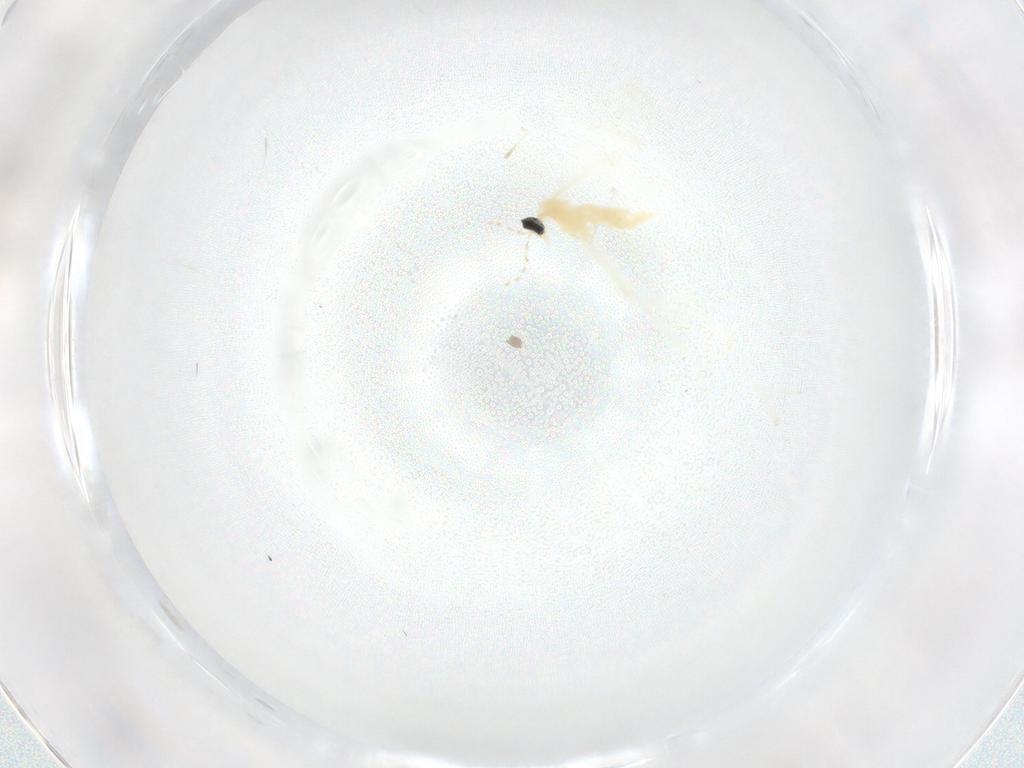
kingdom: Animalia
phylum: Arthropoda
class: Insecta
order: Diptera
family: Cecidomyiidae
